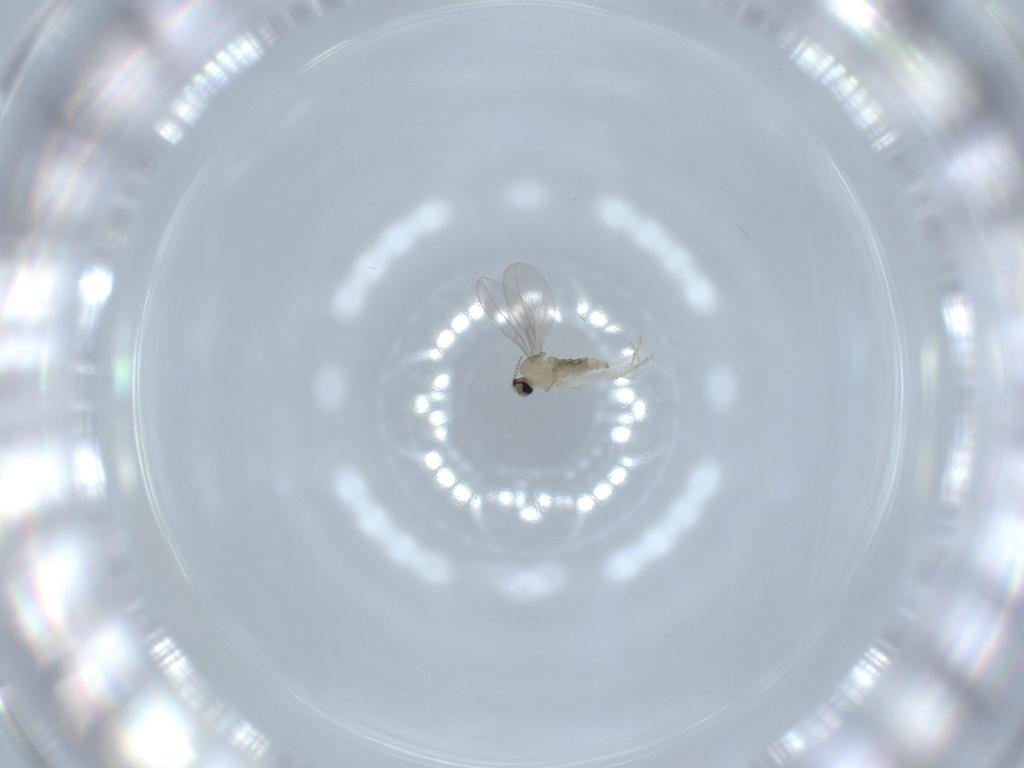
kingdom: Animalia
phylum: Arthropoda
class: Insecta
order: Diptera
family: Cecidomyiidae
